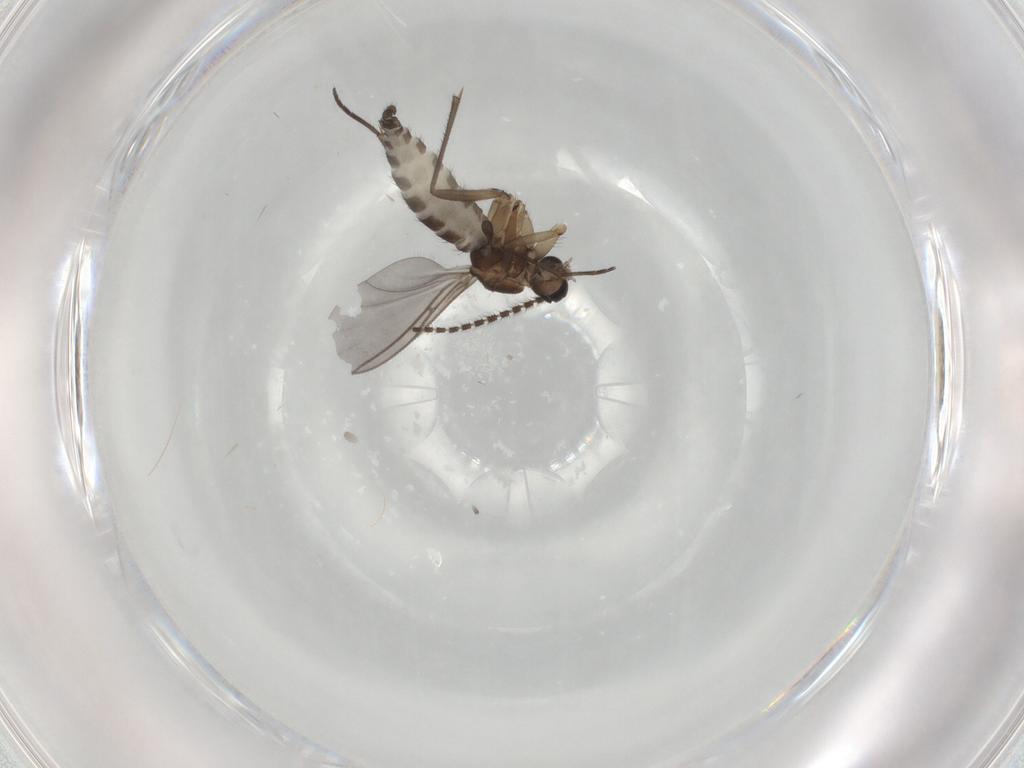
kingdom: Animalia
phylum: Arthropoda
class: Insecta
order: Diptera
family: Phoridae
